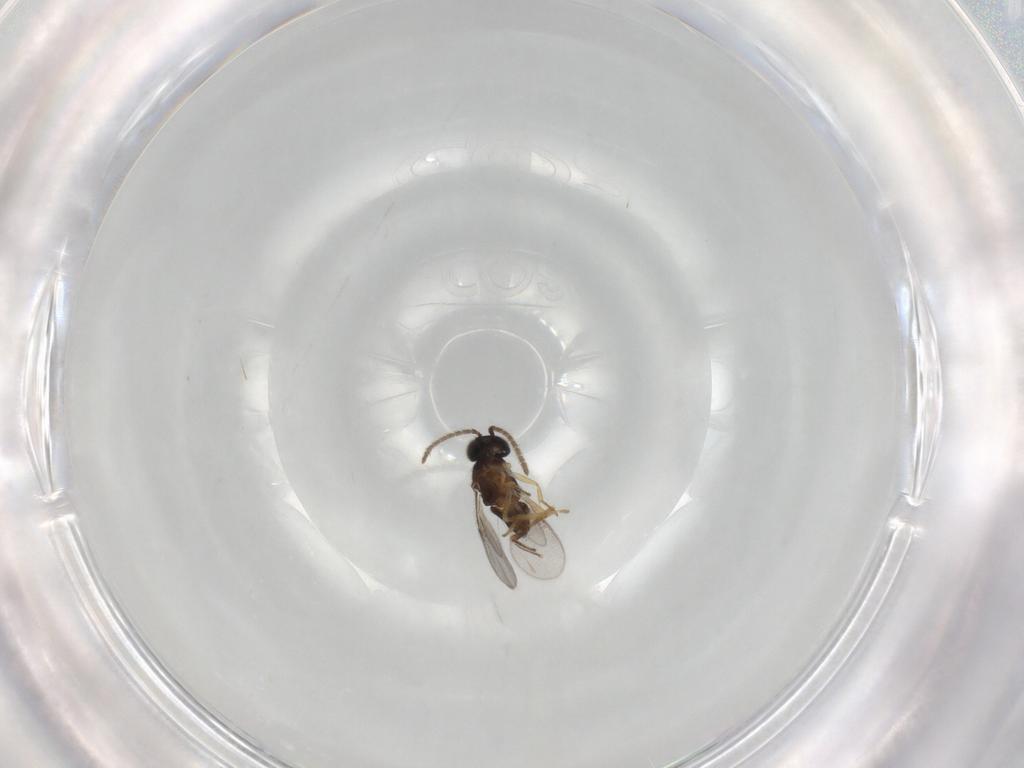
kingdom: Animalia
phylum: Arthropoda
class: Insecta
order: Hymenoptera
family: Encyrtidae
